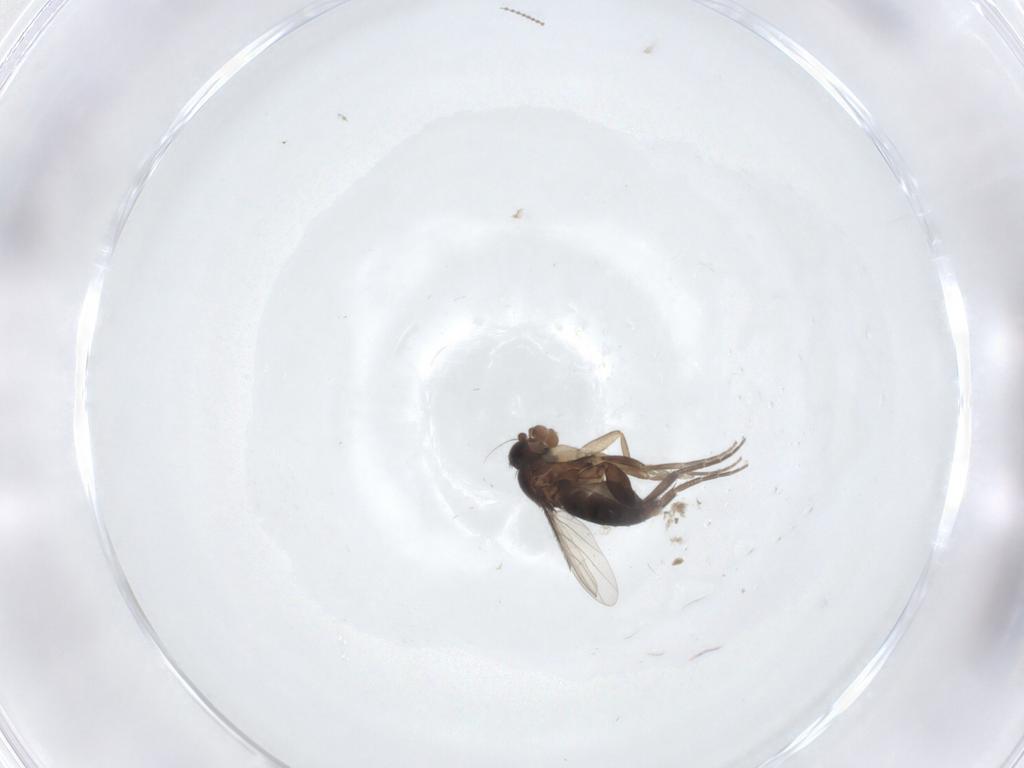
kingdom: Animalia
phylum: Arthropoda
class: Insecta
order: Diptera
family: Phoridae
